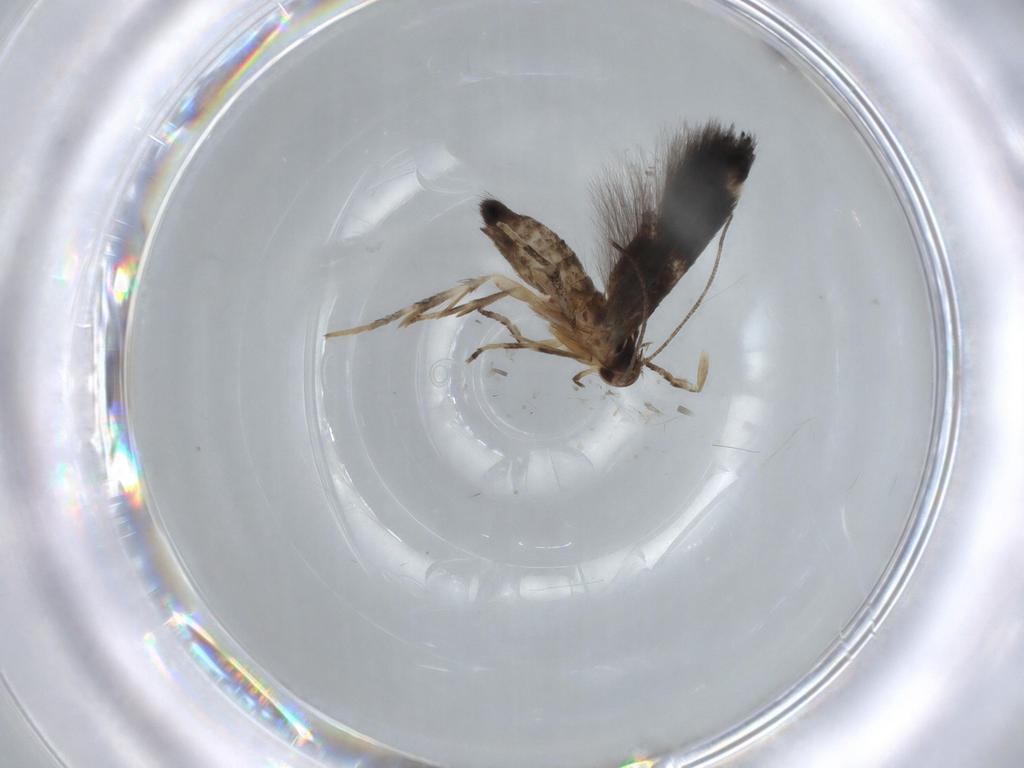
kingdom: Animalia
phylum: Arthropoda
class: Insecta
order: Lepidoptera
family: Cosmopterigidae
